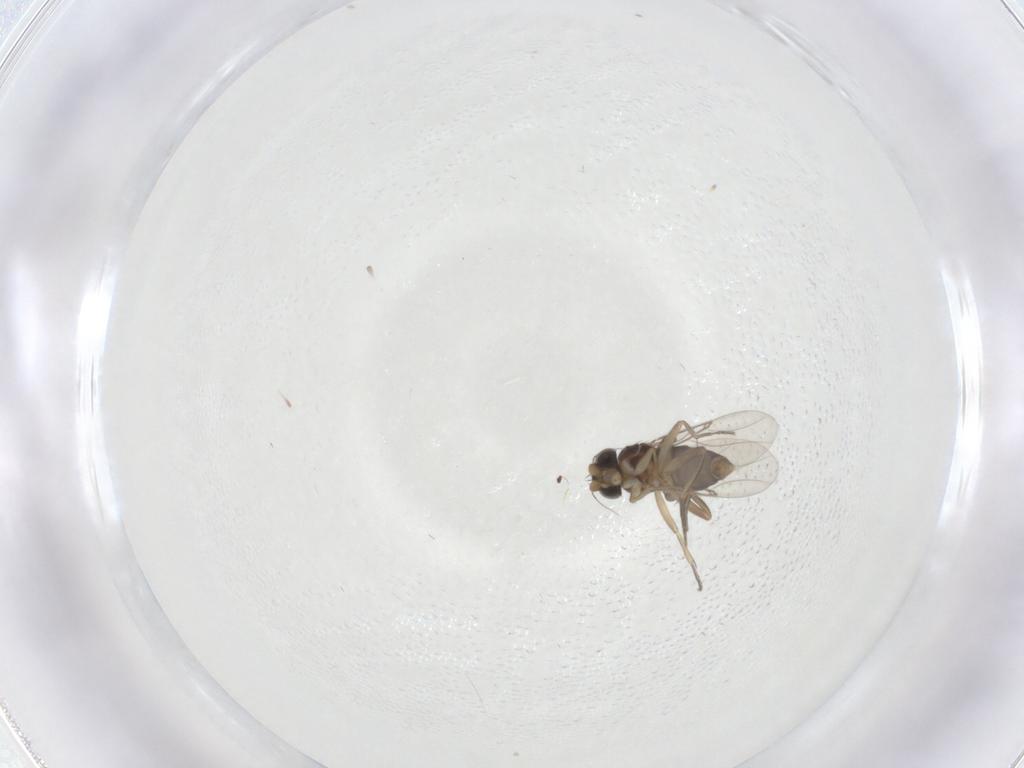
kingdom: Animalia
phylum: Arthropoda
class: Insecta
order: Diptera
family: Phoridae
